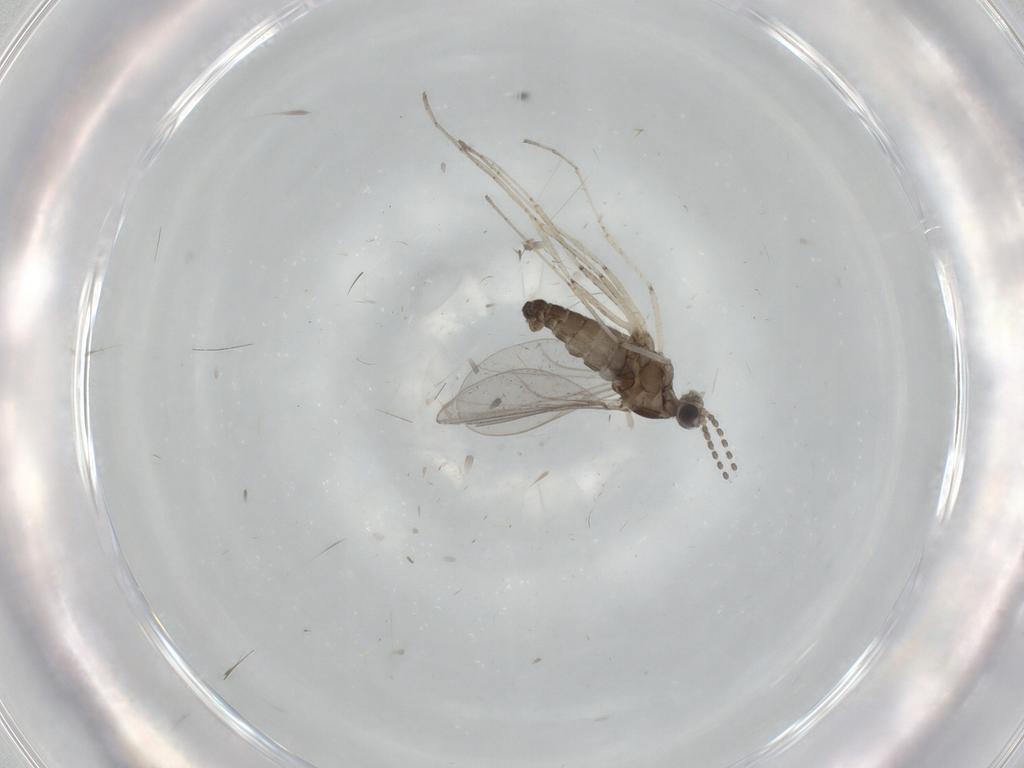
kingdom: Animalia
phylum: Arthropoda
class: Insecta
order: Diptera
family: Cecidomyiidae
